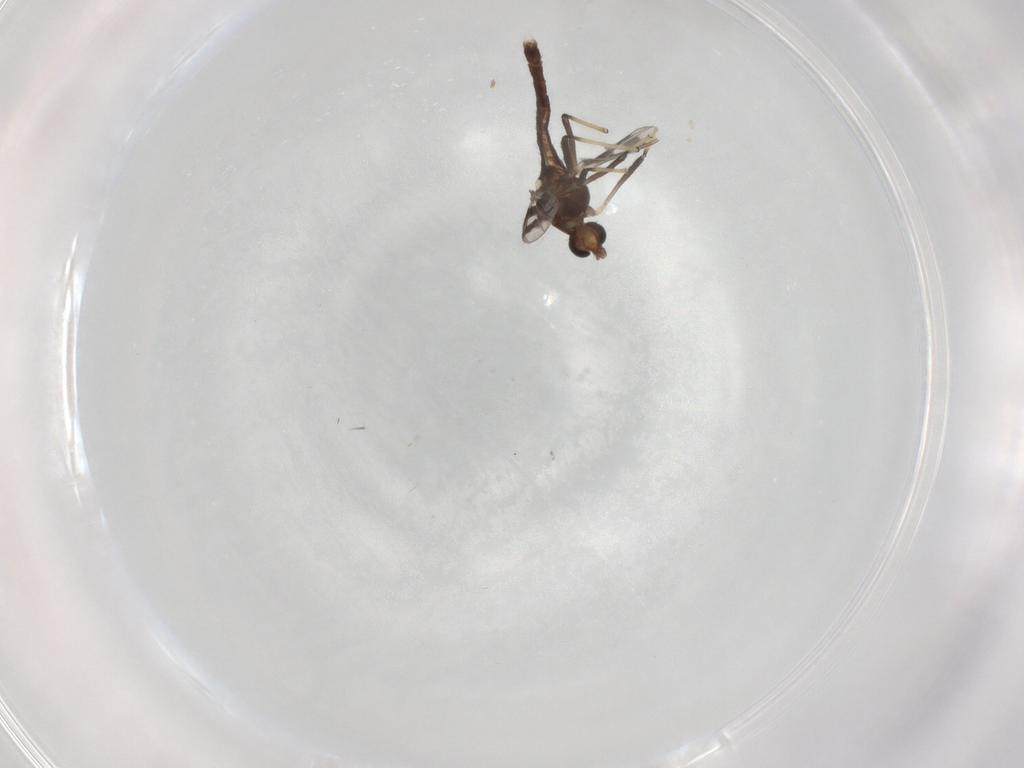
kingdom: Animalia
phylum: Arthropoda
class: Insecta
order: Diptera
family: Chironomidae
